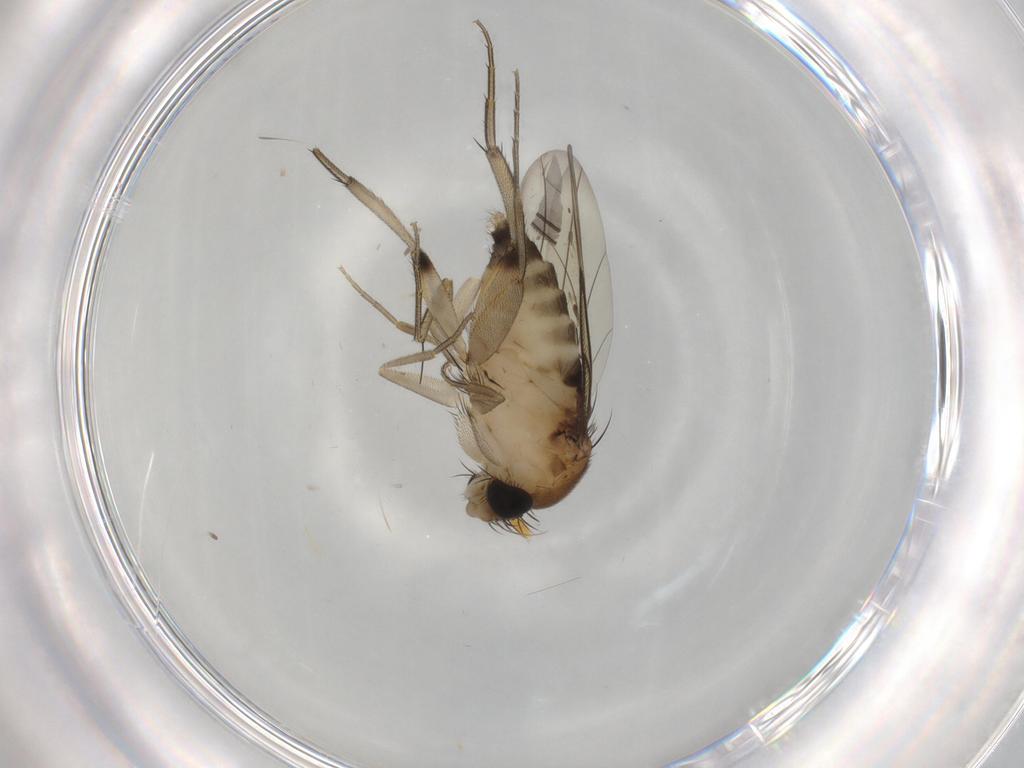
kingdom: Animalia
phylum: Arthropoda
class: Insecta
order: Diptera
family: Phoridae
